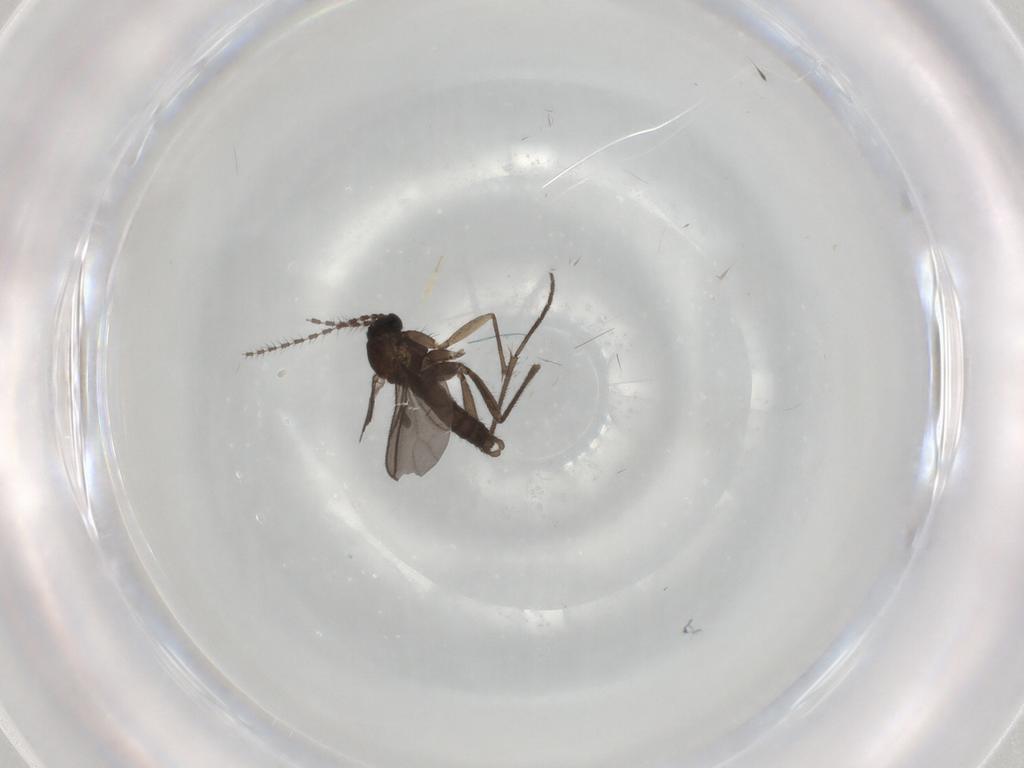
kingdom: Animalia
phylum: Arthropoda
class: Insecta
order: Diptera
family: Sciaridae
